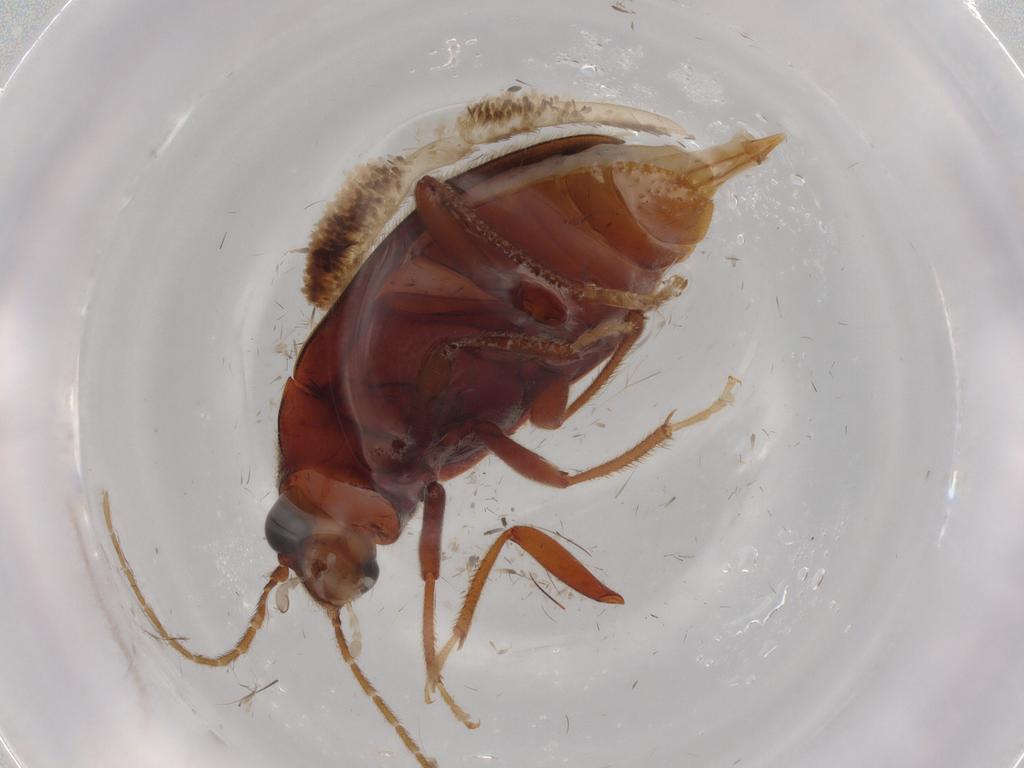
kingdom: Animalia
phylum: Arthropoda
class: Insecta
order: Coleoptera
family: Ptilodactylidae
